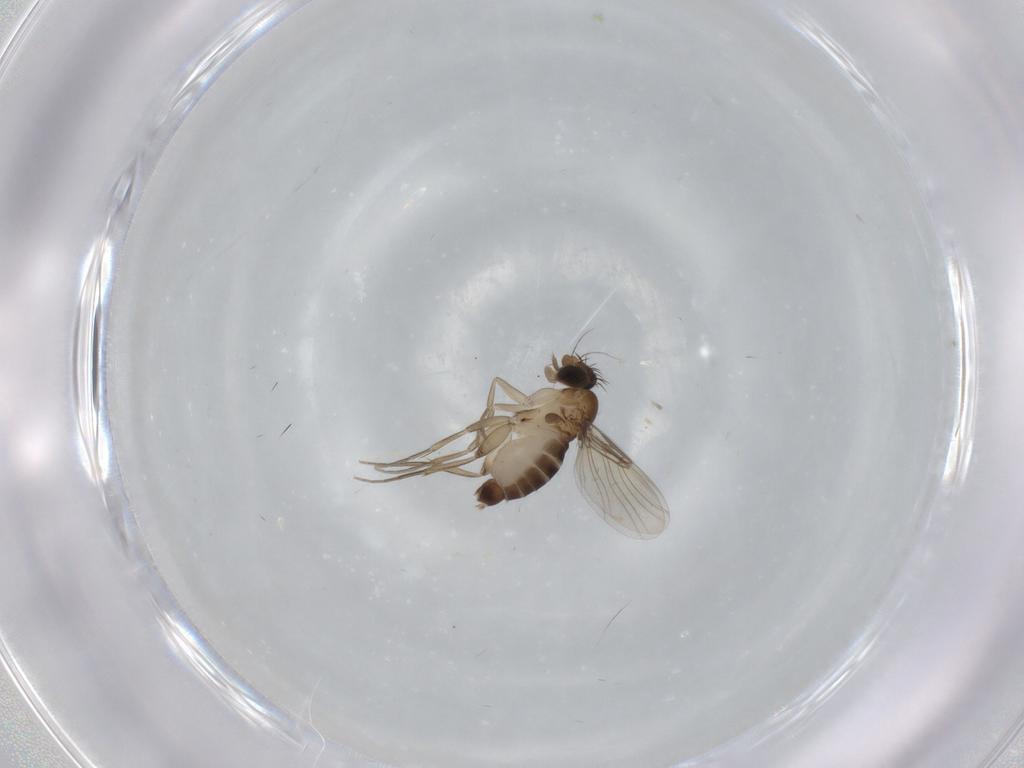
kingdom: Animalia
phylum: Arthropoda
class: Insecta
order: Diptera
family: Phoridae
